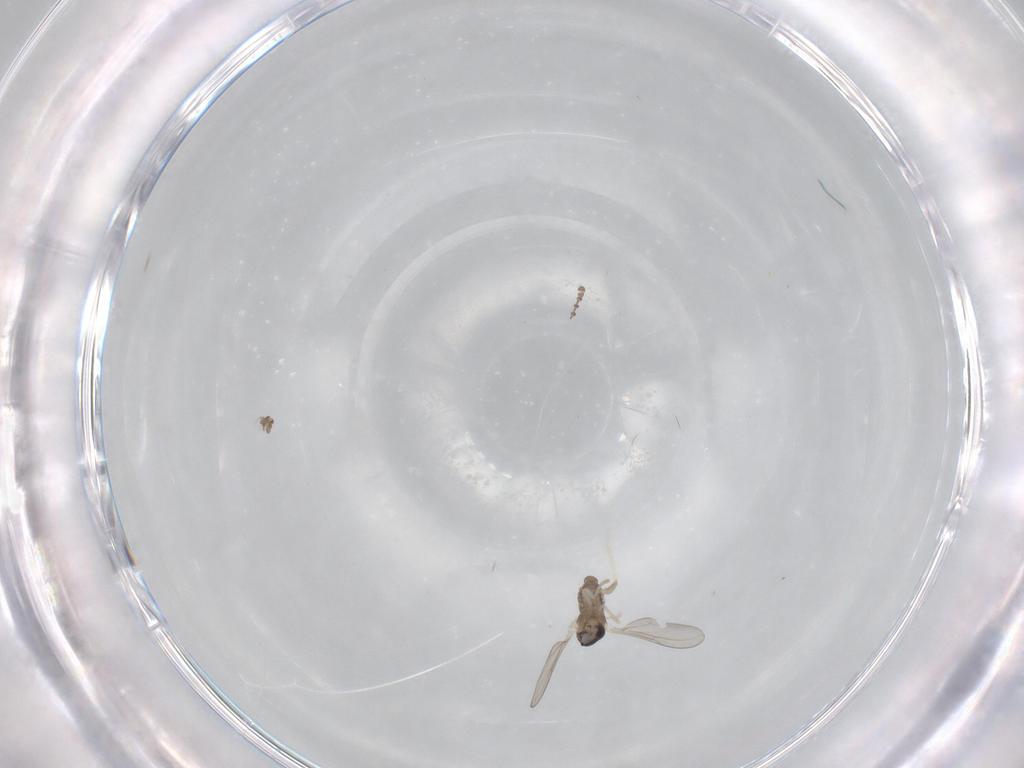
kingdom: Animalia
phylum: Arthropoda
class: Insecta
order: Diptera
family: Cecidomyiidae
